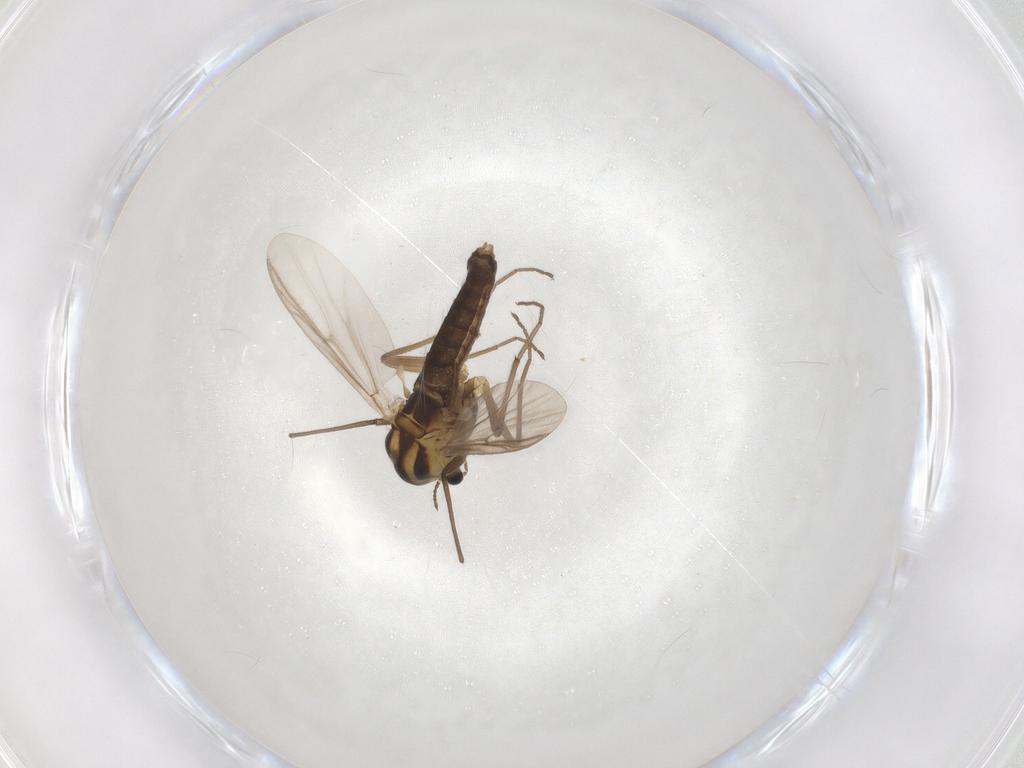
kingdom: Animalia
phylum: Arthropoda
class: Insecta
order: Diptera
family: Chironomidae
